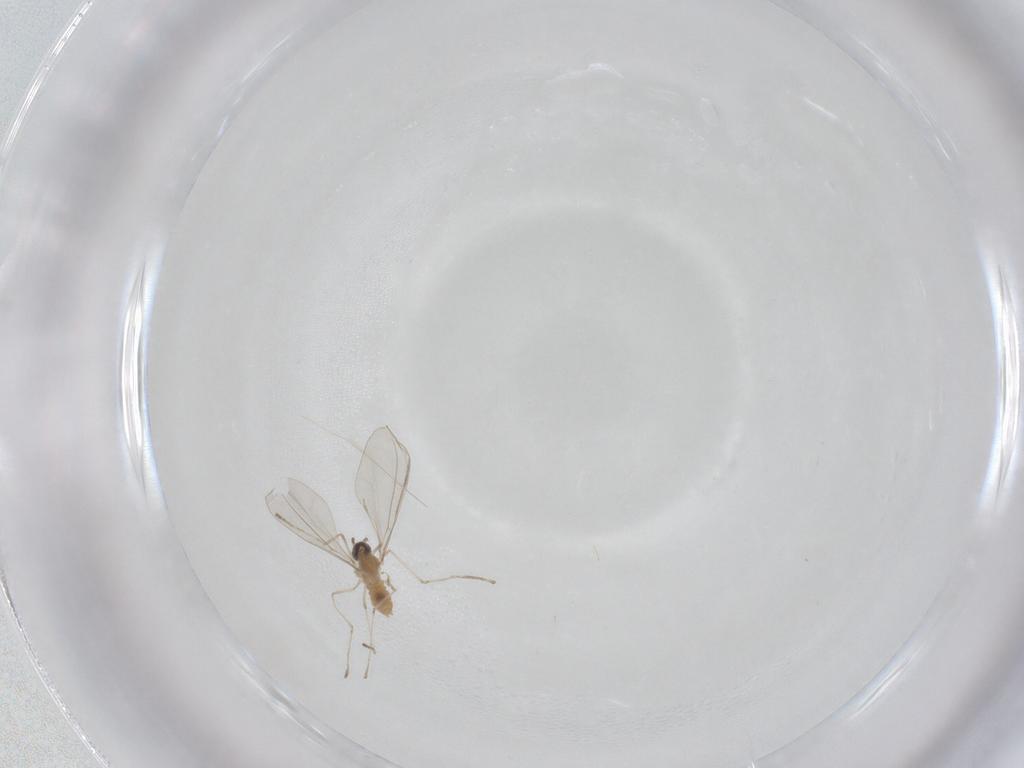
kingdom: Animalia
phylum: Arthropoda
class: Insecta
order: Diptera
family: Cecidomyiidae
